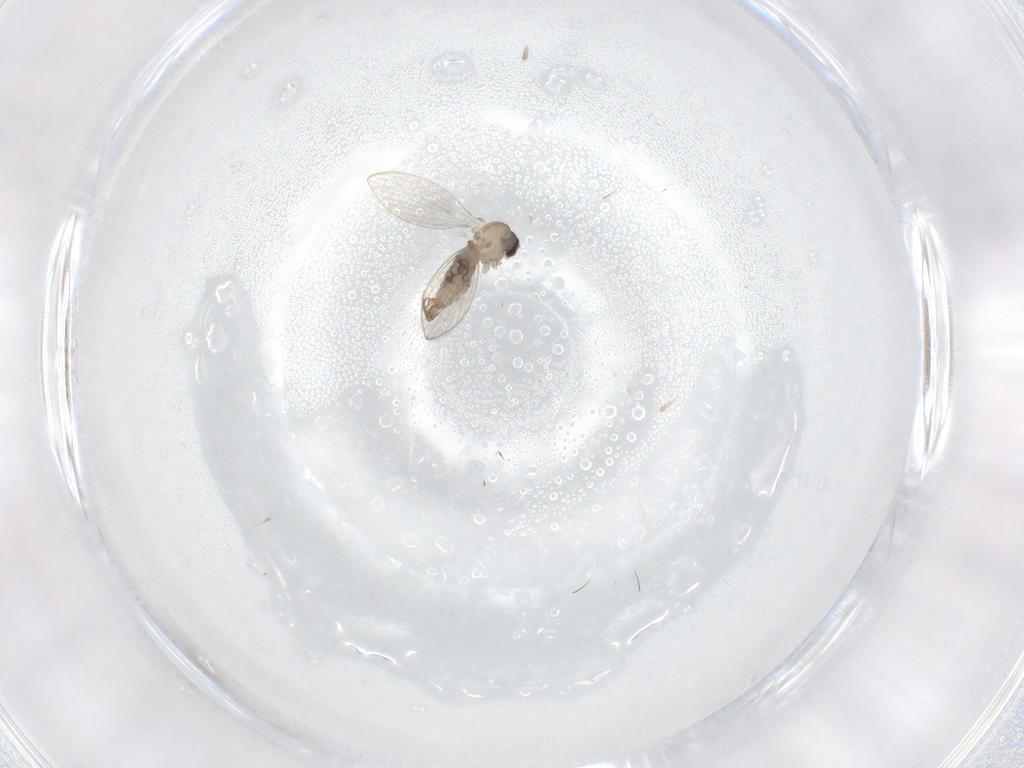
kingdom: Animalia
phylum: Arthropoda
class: Insecta
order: Diptera
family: Psychodidae
